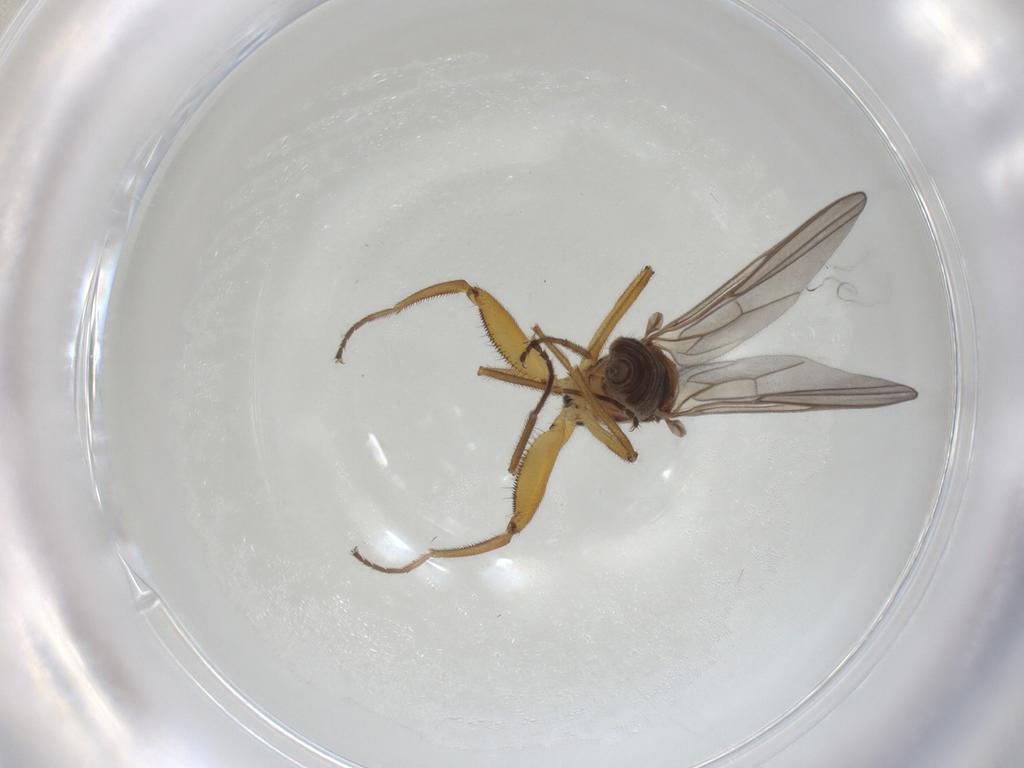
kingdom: Animalia
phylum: Arthropoda
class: Insecta
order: Diptera
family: Hybotidae
